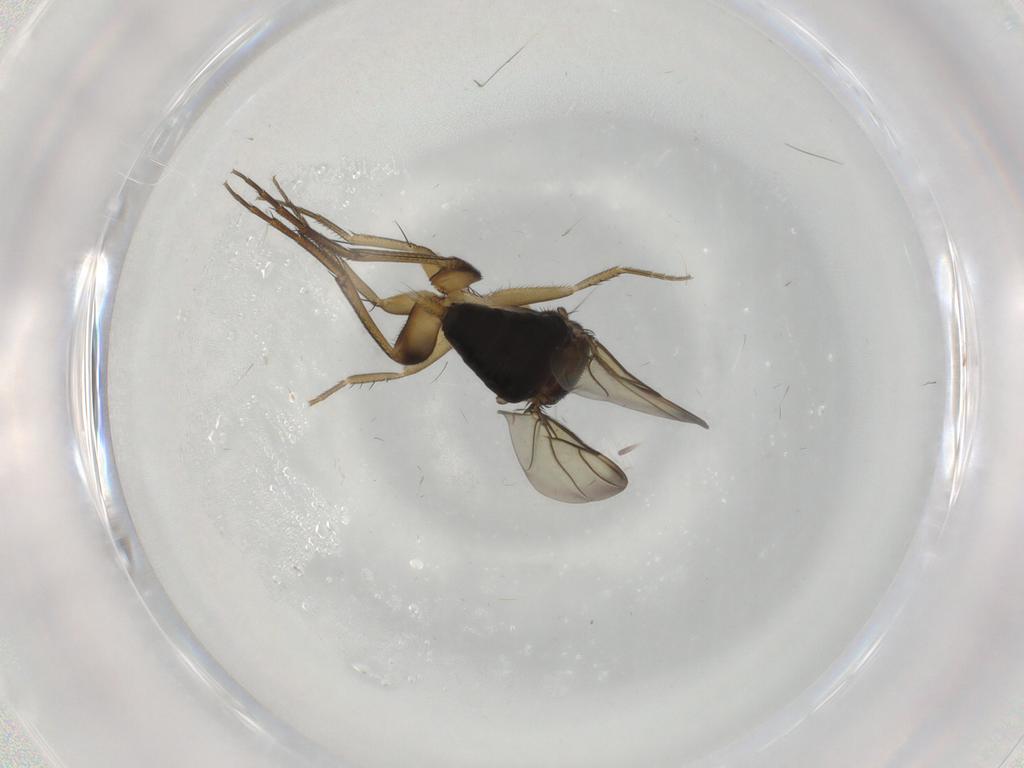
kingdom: Animalia
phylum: Arthropoda
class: Insecta
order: Diptera
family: Phoridae
